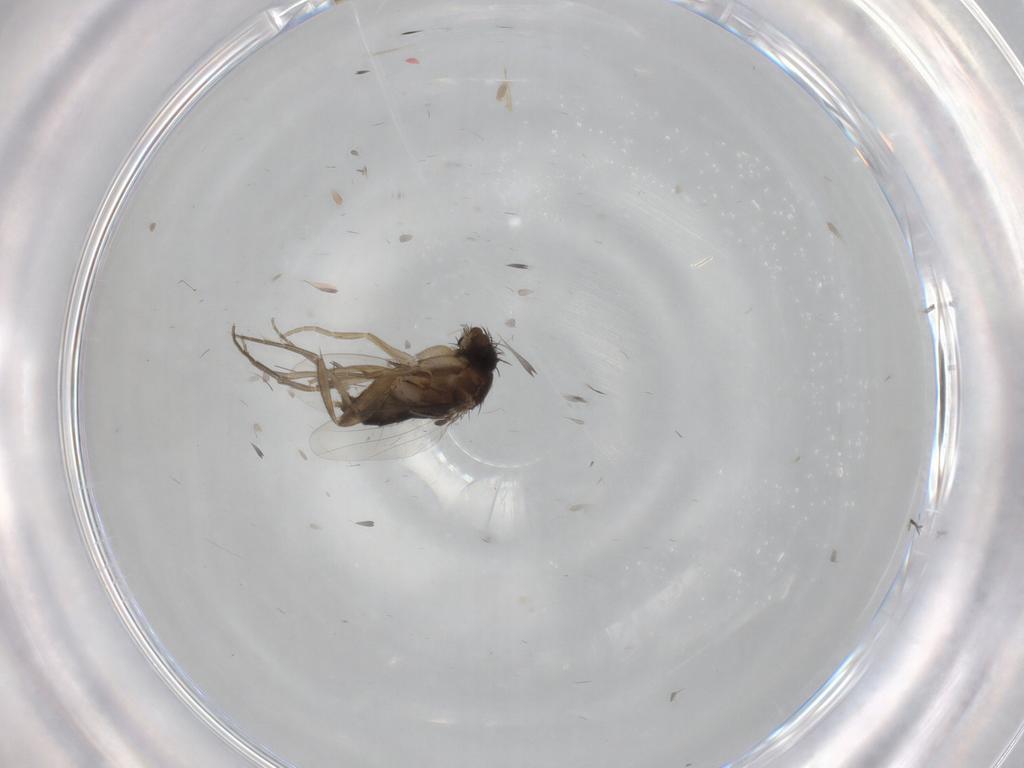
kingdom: Animalia
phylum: Arthropoda
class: Insecta
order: Diptera
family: Phoridae
